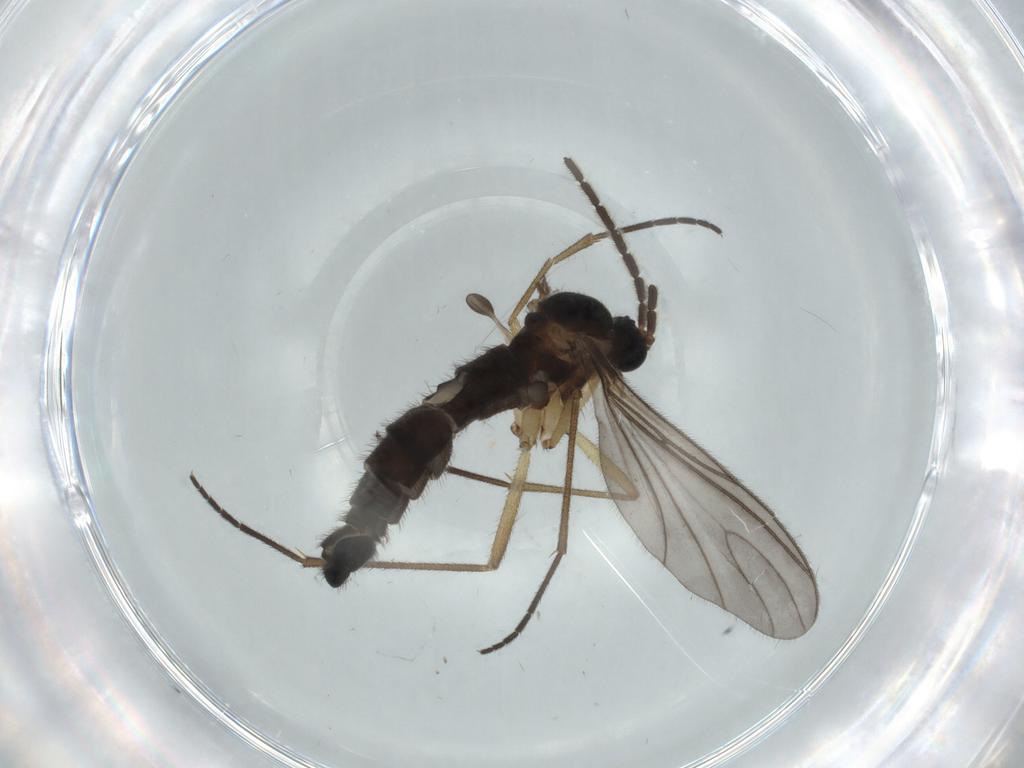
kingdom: Animalia
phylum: Arthropoda
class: Insecta
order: Diptera
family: Sciaridae
